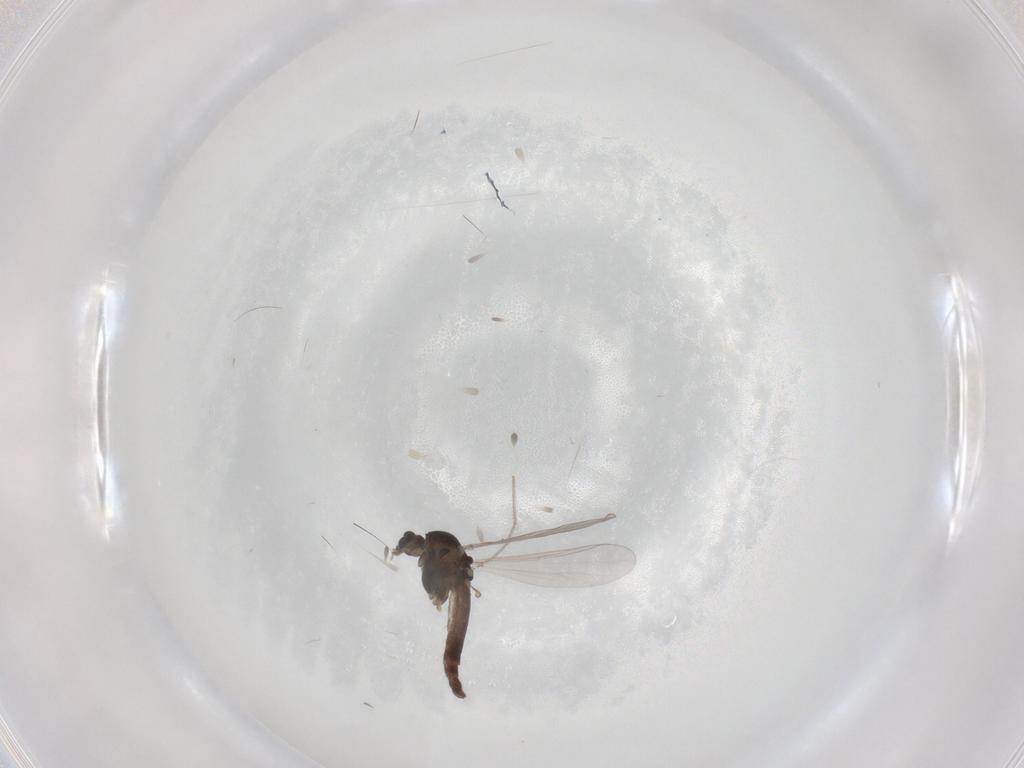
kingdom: Animalia
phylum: Arthropoda
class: Insecta
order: Diptera
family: Chironomidae
